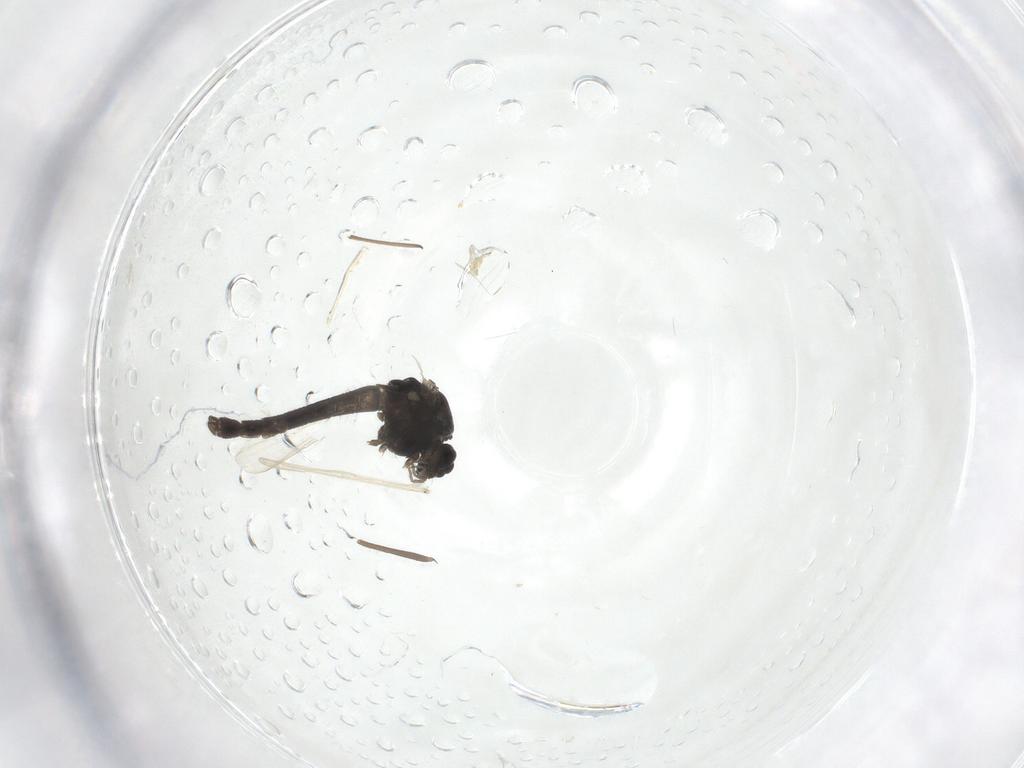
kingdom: Animalia
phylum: Arthropoda
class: Insecta
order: Diptera
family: Chironomidae
